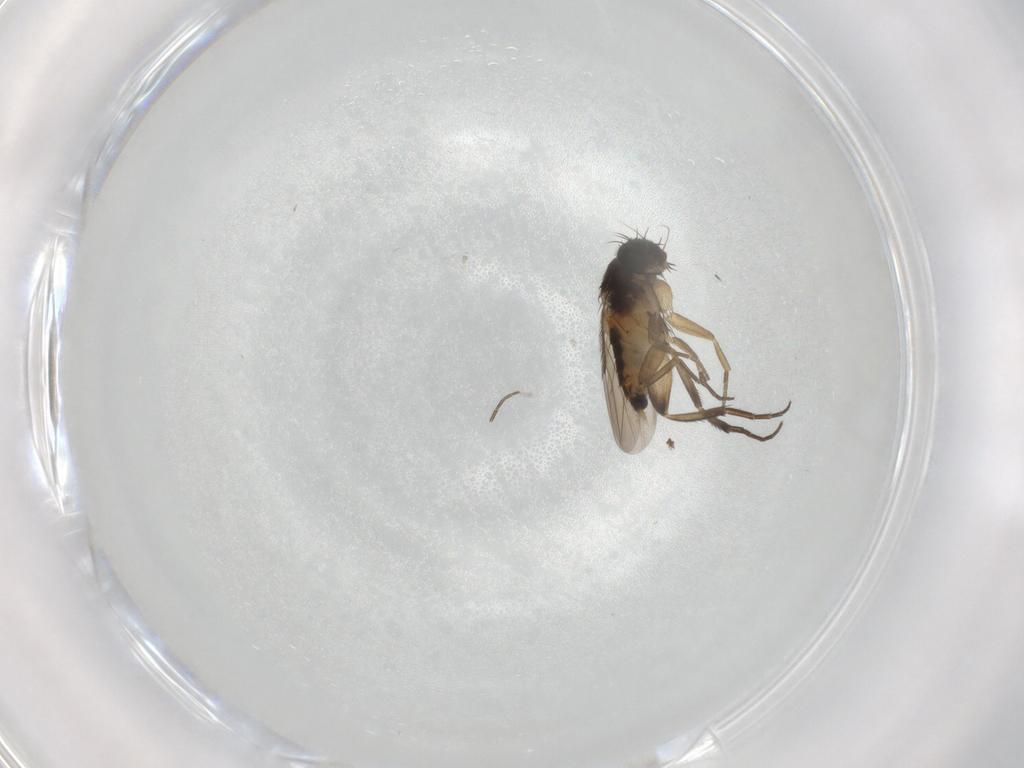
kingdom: Animalia
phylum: Arthropoda
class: Insecta
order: Diptera
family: Phoridae
